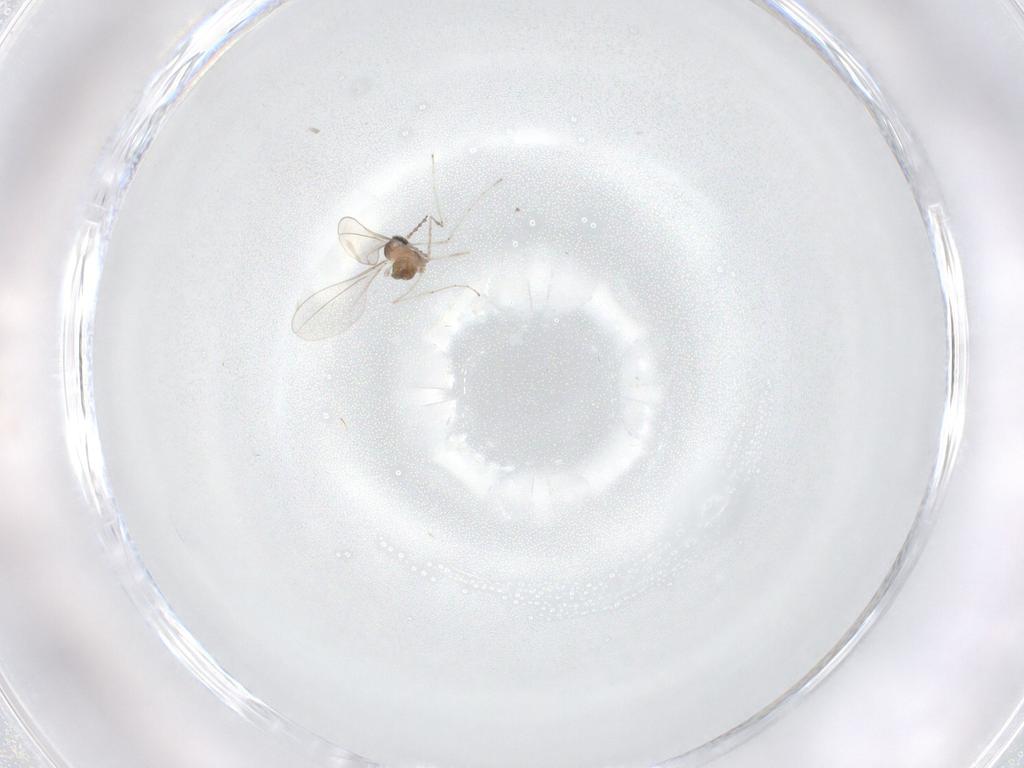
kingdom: Animalia
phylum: Arthropoda
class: Insecta
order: Diptera
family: Cecidomyiidae
